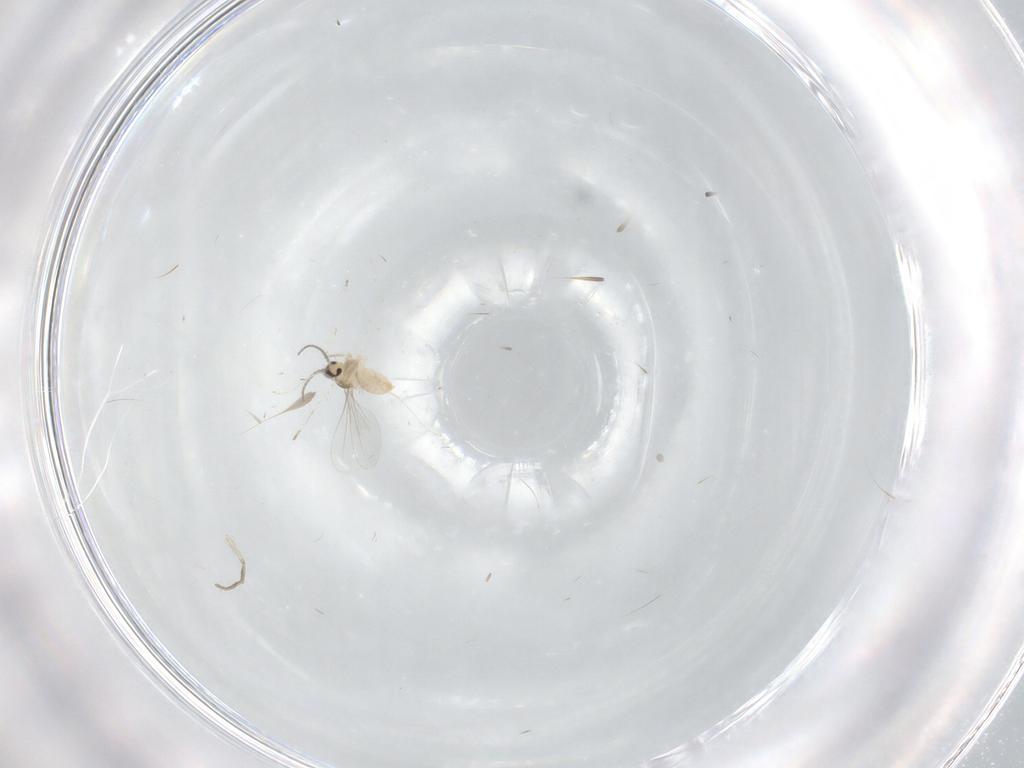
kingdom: Animalia
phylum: Arthropoda
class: Insecta
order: Diptera
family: Cecidomyiidae
